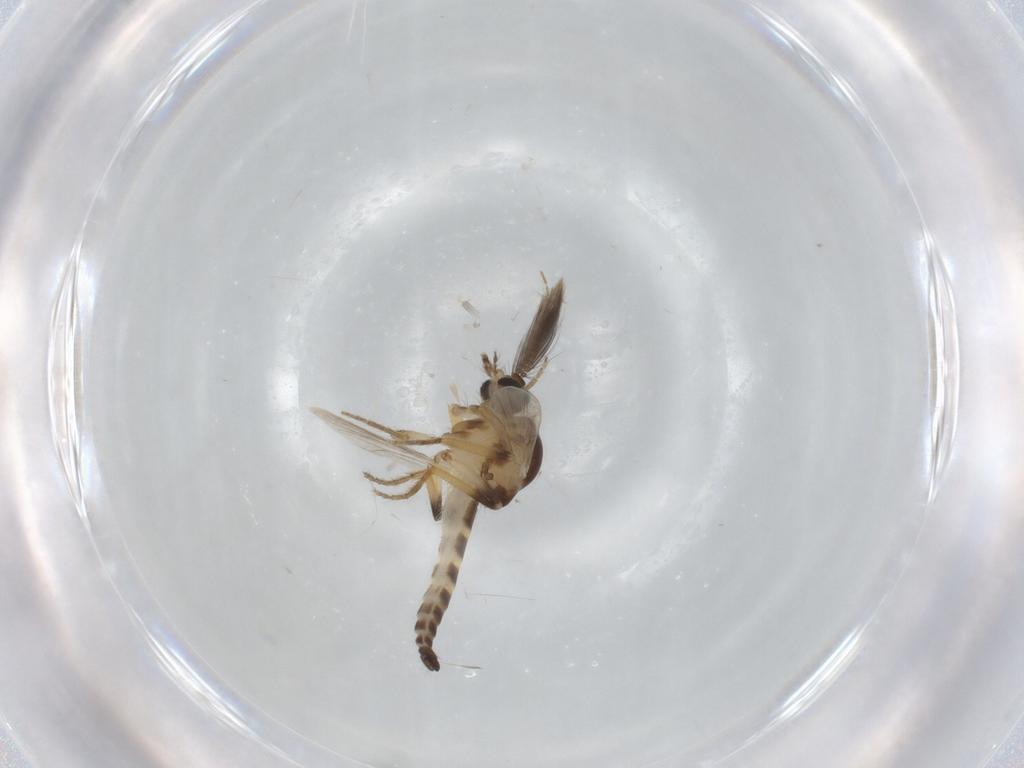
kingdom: Animalia
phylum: Arthropoda
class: Insecta
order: Diptera
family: Ceratopogonidae
